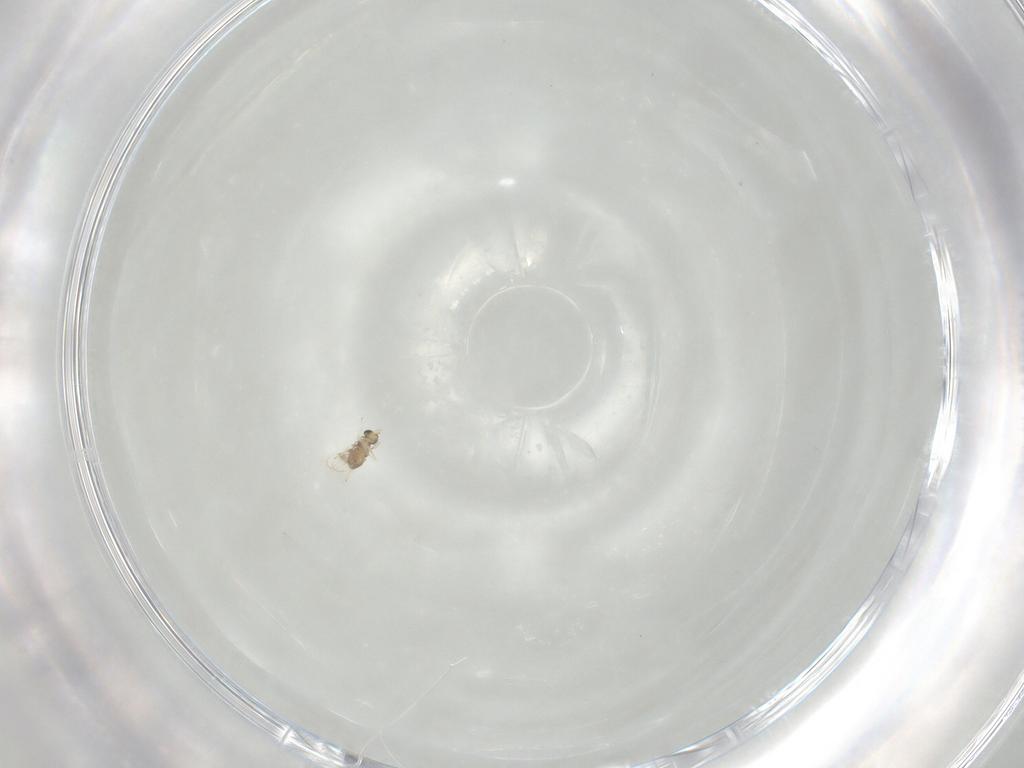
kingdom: Animalia
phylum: Arthropoda
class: Insecta
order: Hymenoptera
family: Trichogrammatidae
